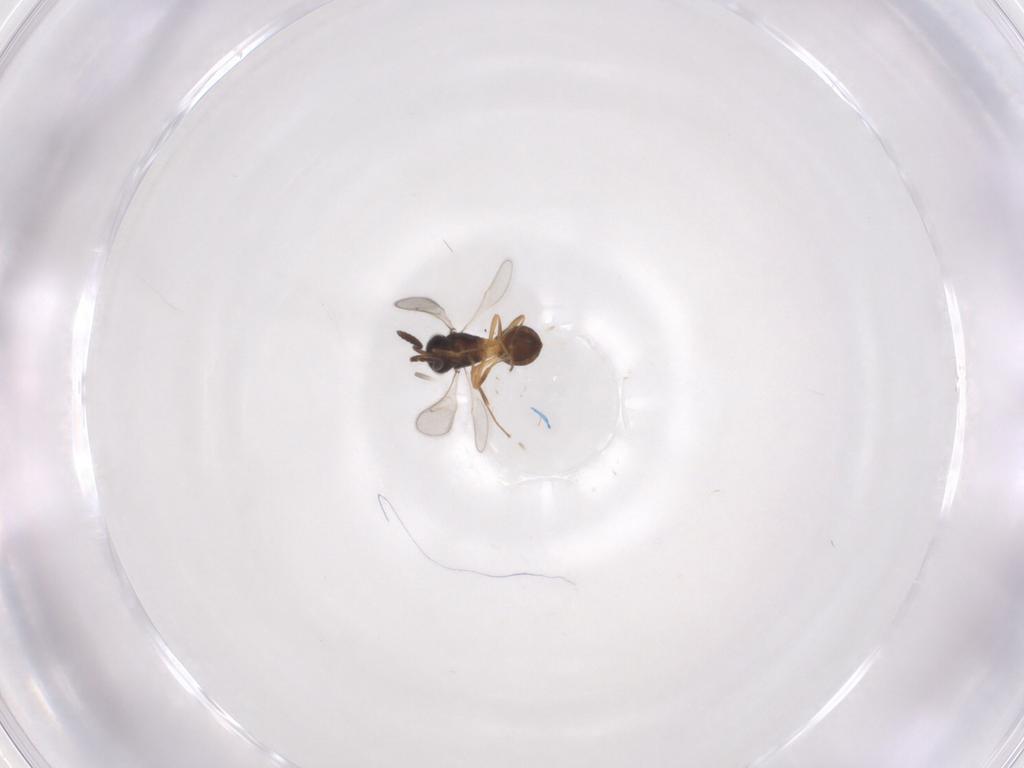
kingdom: Animalia
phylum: Arthropoda
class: Insecta
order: Hymenoptera
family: Scelionidae
